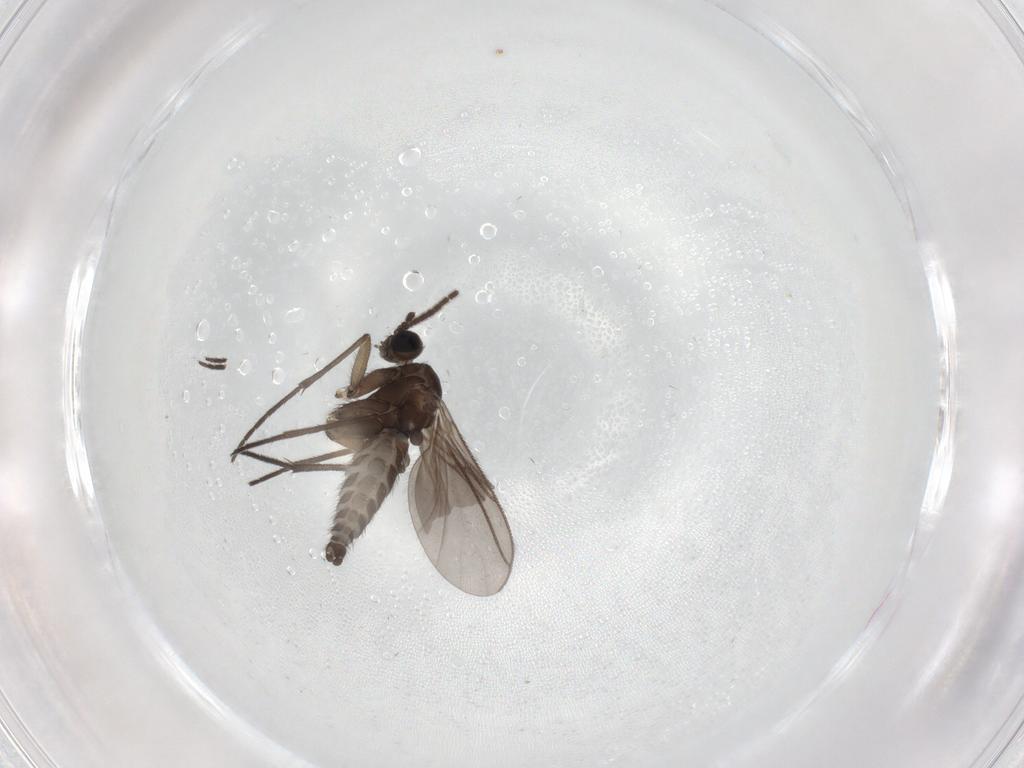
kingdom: Animalia
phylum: Arthropoda
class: Insecta
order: Diptera
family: Sciaridae
